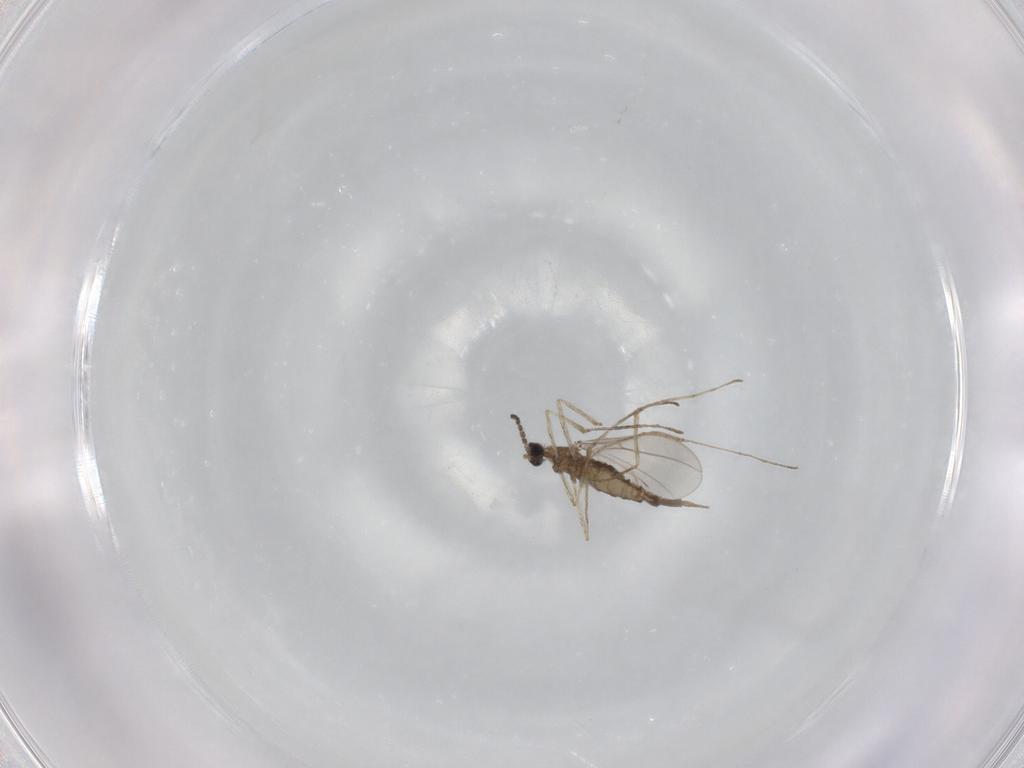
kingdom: Animalia
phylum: Arthropoda
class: Insecta
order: Diptera
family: Cecidomyiidae
